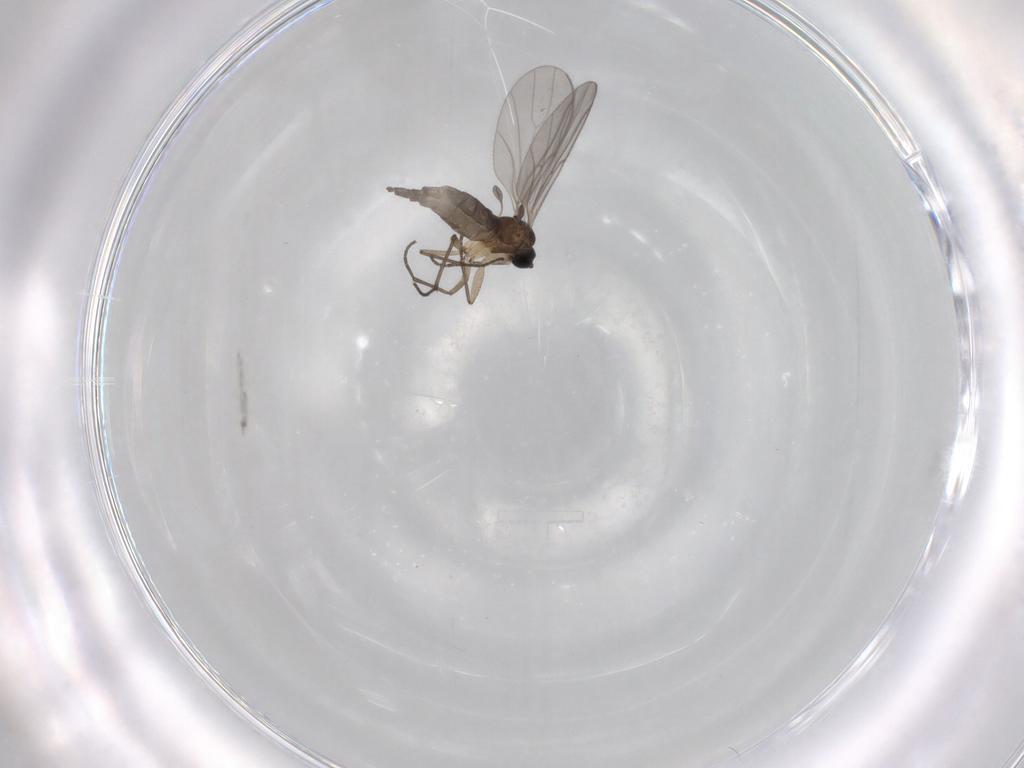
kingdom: Animalia
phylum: Arthropoda
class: Insecta
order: Diptera
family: Sciaridae
